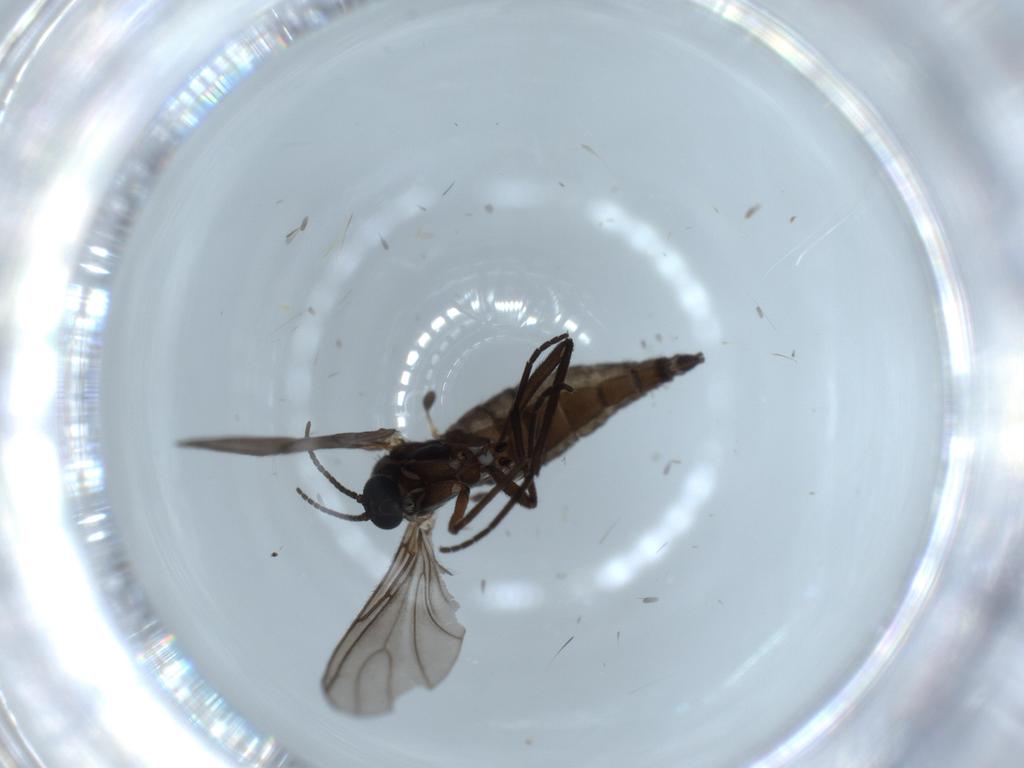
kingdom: Animalia
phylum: Arthropoda
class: Insecta
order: Diptera
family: Sciaridae
